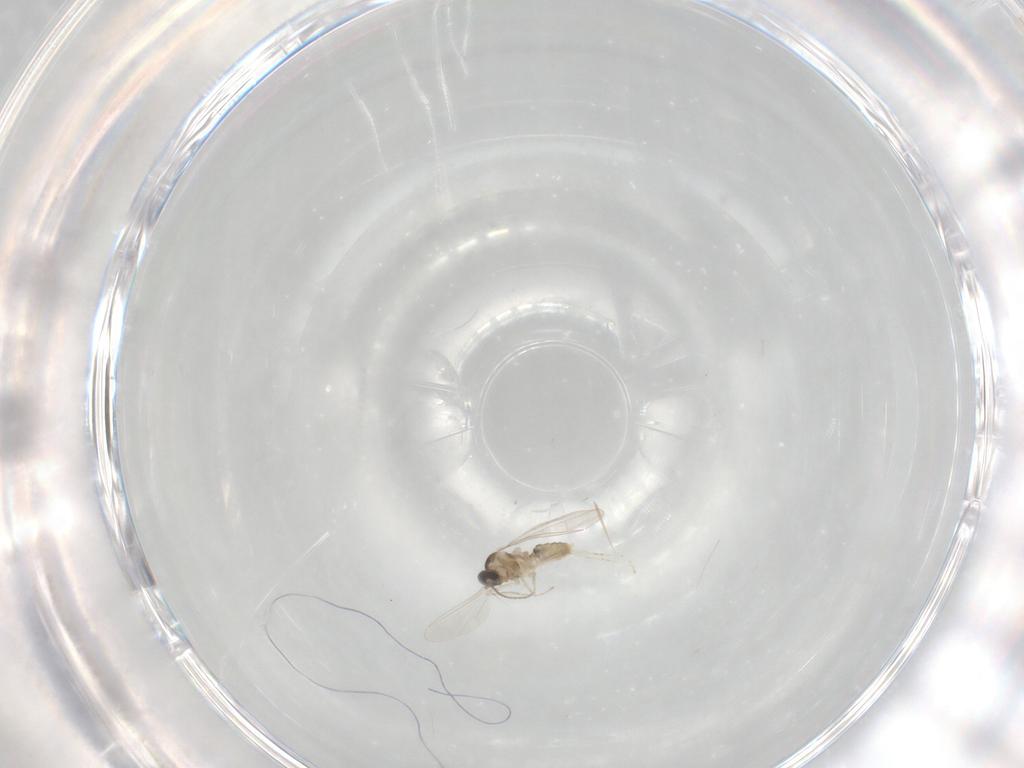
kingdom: Animalia
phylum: Arthropoda
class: Insecta
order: Diptera
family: Cecidomyiidae
